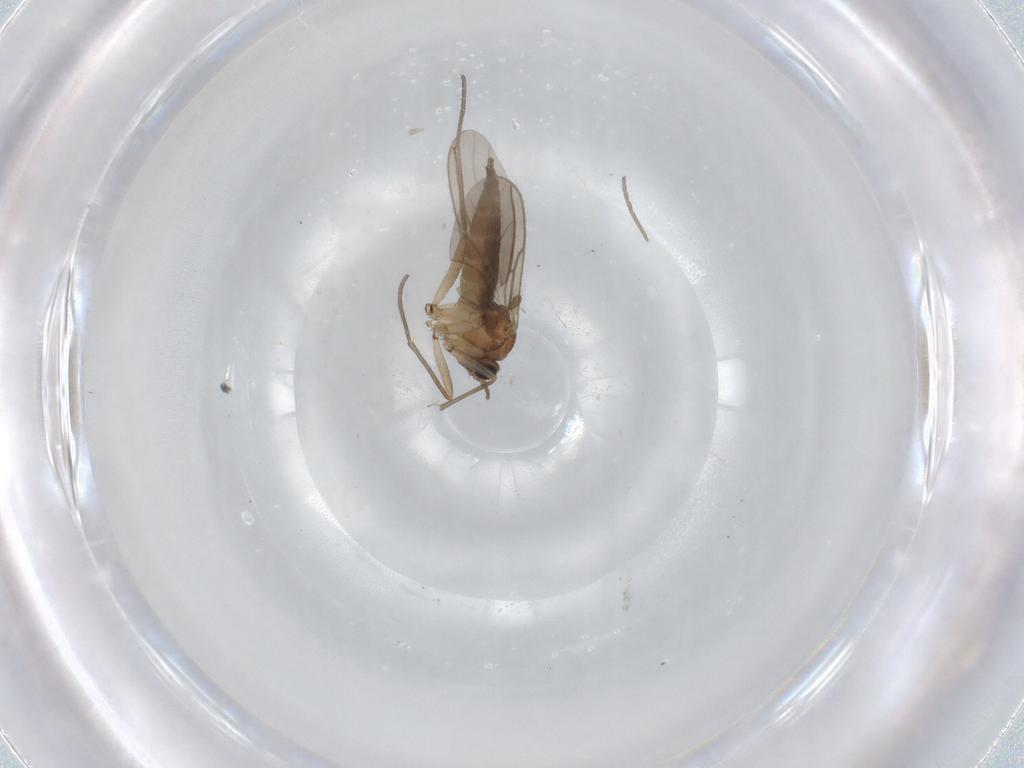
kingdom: Animalia
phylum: Arthropoda
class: Insecta
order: Diptera
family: Sciaridae
